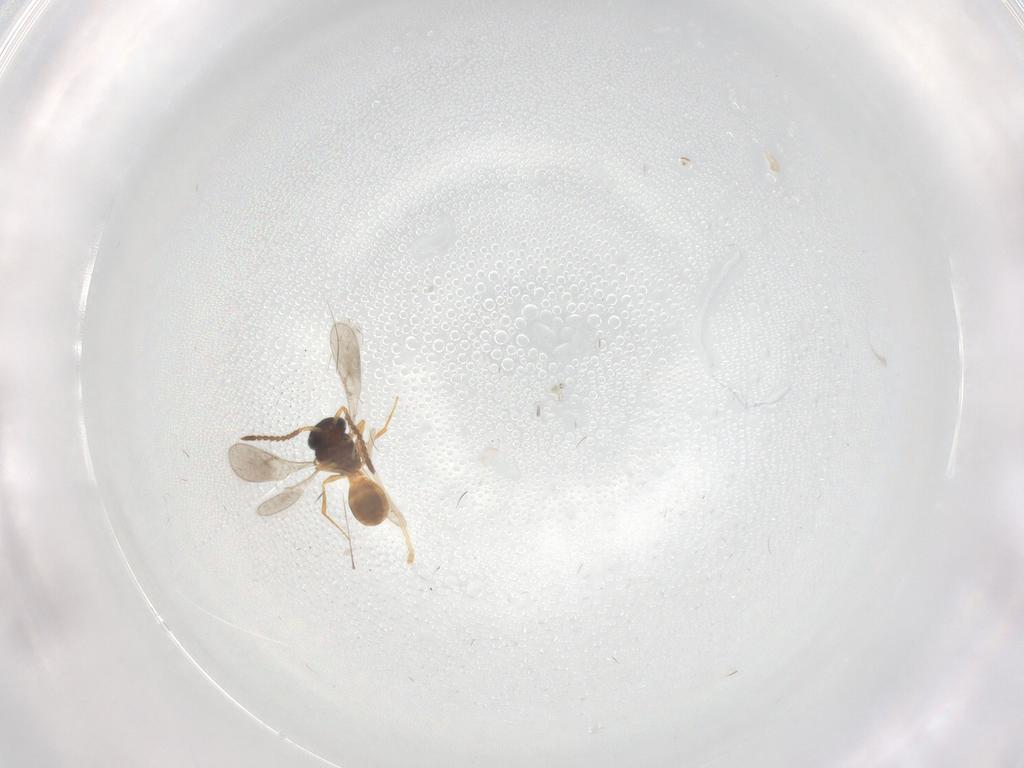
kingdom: Animalia
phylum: Arthropoda
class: Insecta
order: Hymenoptera
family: Scelionidae
